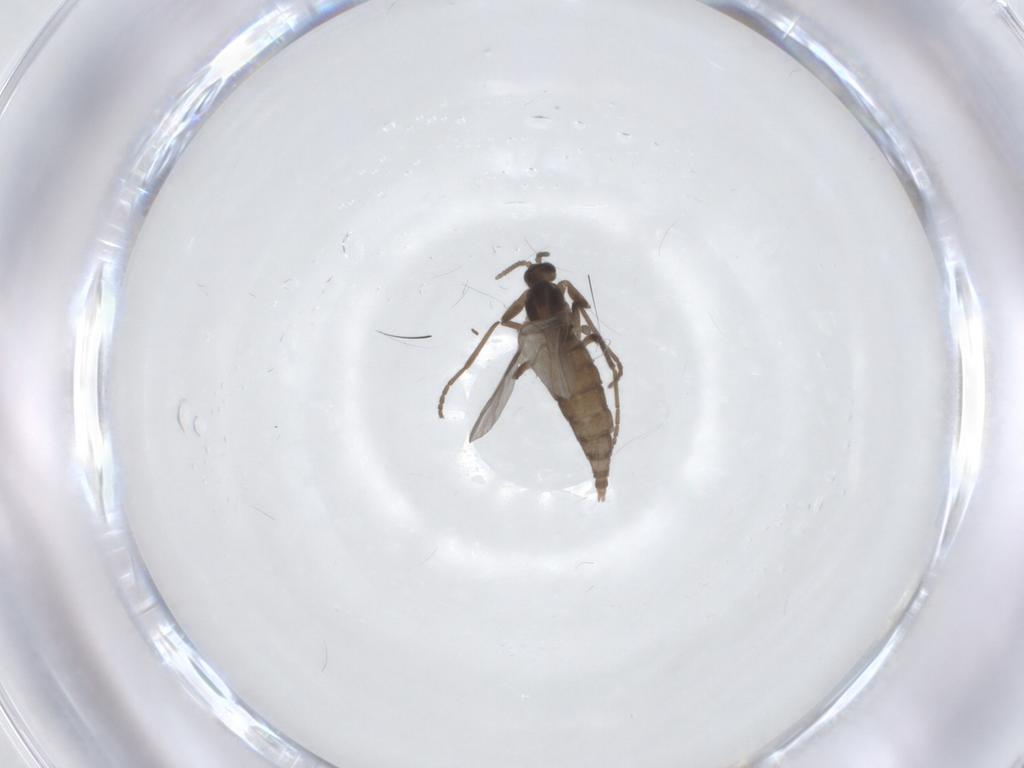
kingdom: Animalia
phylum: Arthropoda
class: Insecta
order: Diptera
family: Cecidomyiidae
